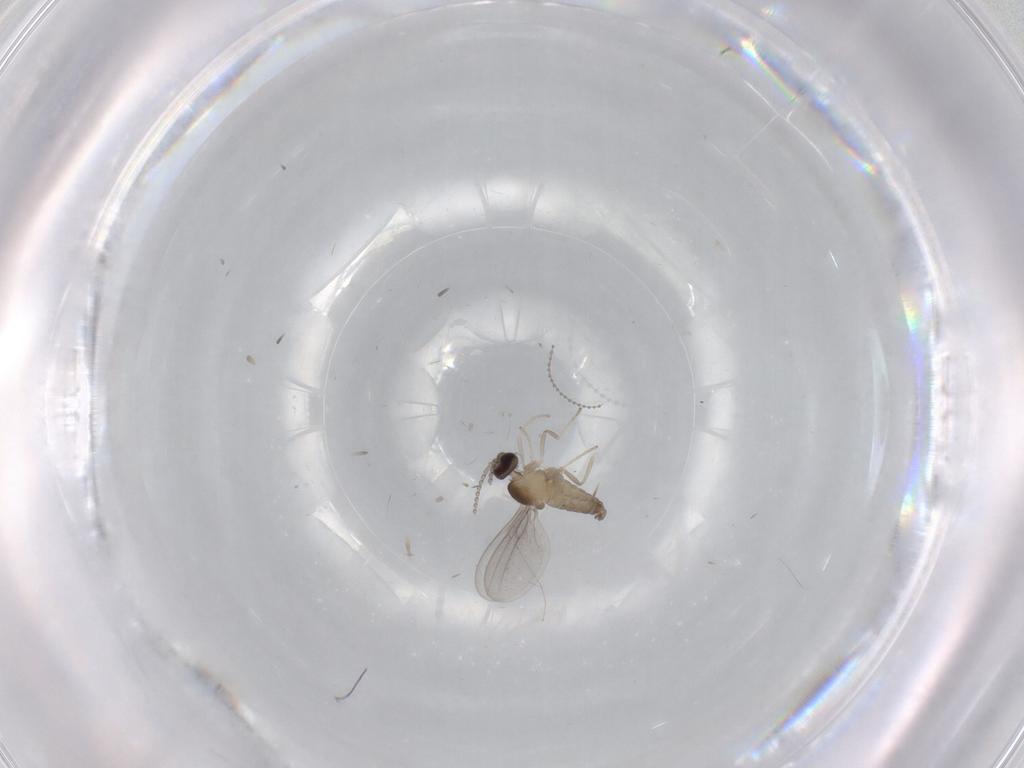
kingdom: Animalia
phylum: Arthropoda
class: Insecta
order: Diptera
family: Cecidomyiidae
